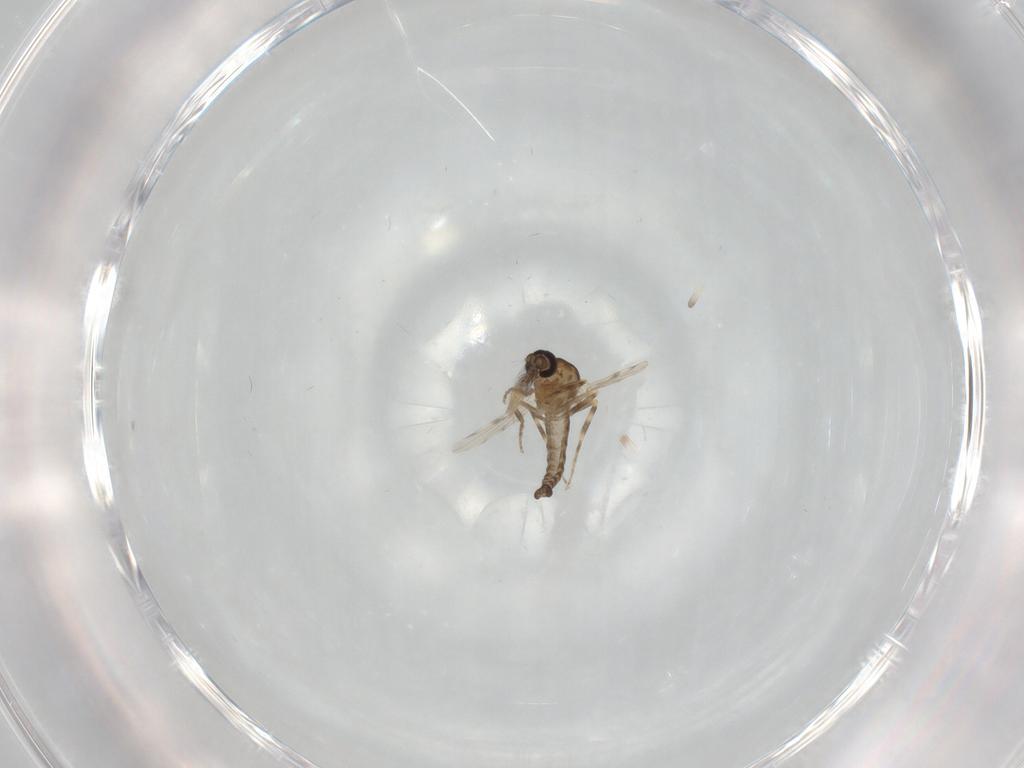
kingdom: Animalia
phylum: Arthropoda
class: Insecta
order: Diptera
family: Ceratopogonidae
